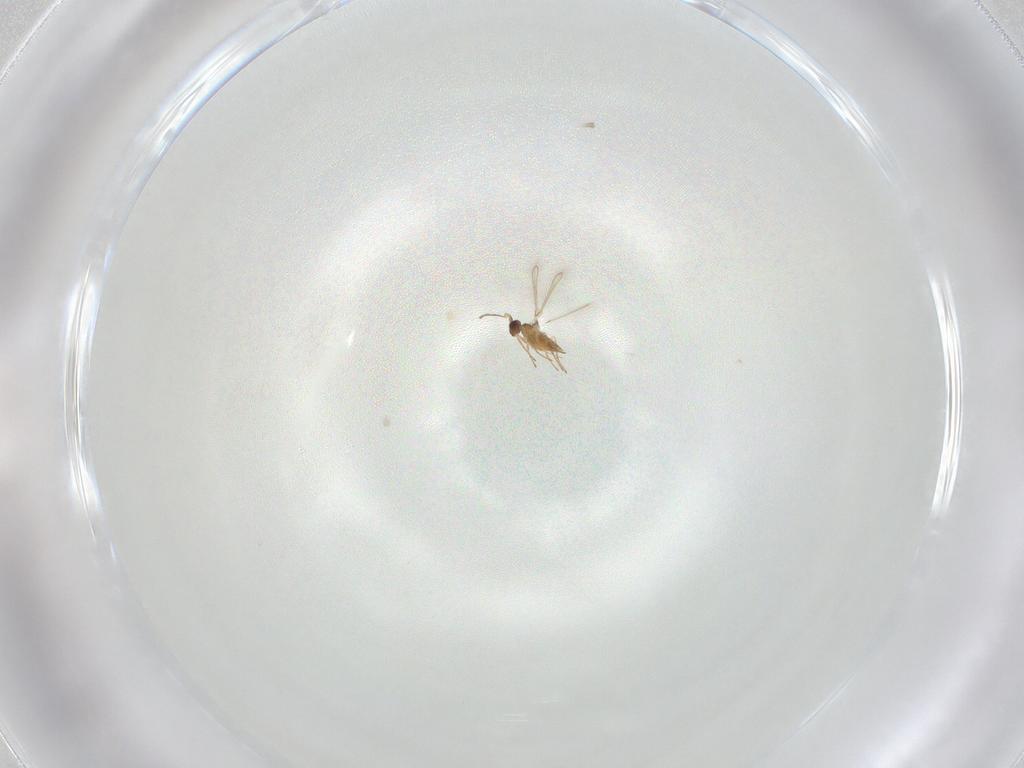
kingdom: Animalia
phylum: Arthropoda
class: Insecta
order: Hymenoptera
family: Mymaridae
